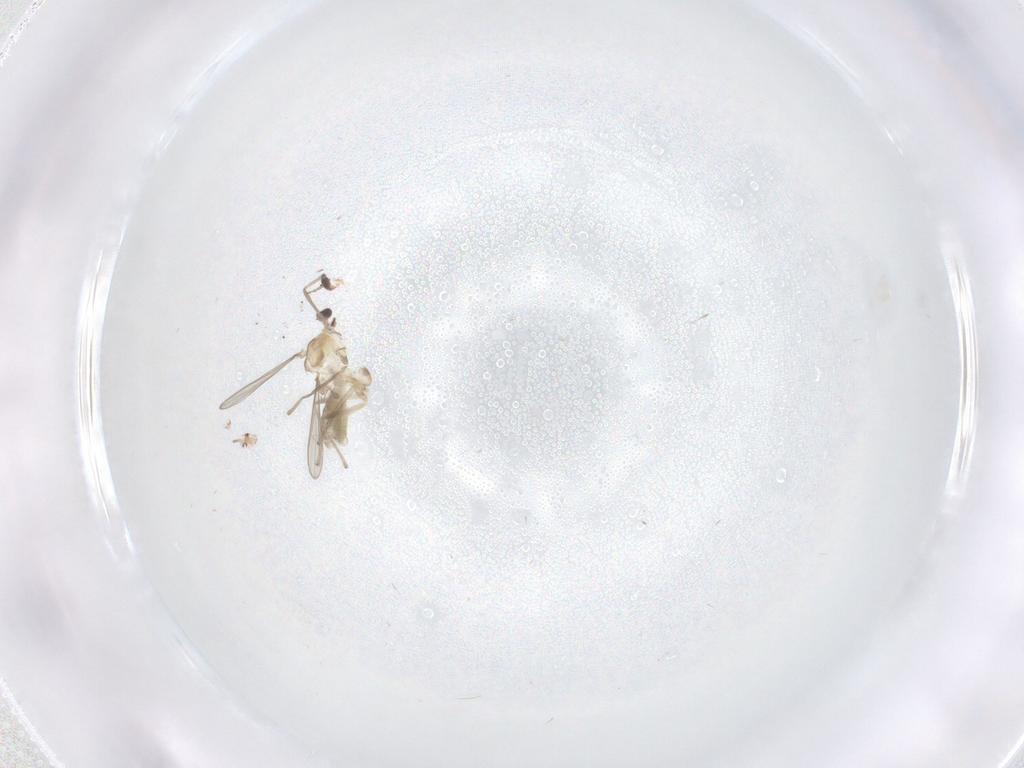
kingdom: Animalia
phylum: Arthropoda
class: Insecta
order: Diptera
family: Chironomidae
